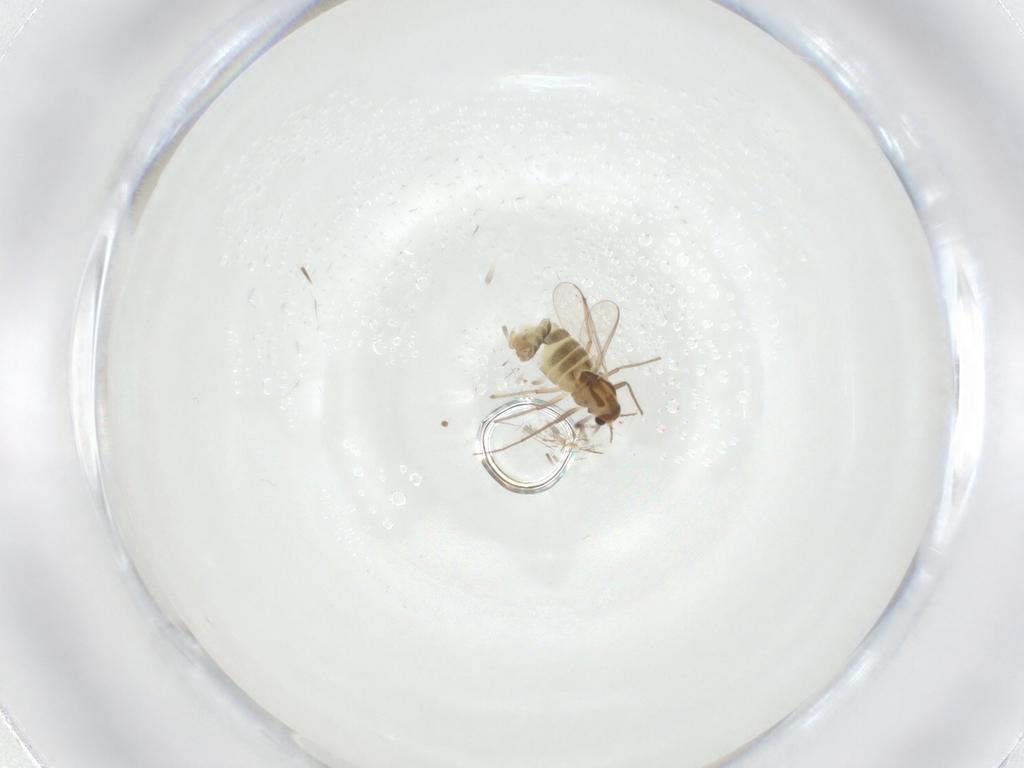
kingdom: Animalia
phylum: Arthropoda
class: Insecta
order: Diptera
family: Chironomidae
